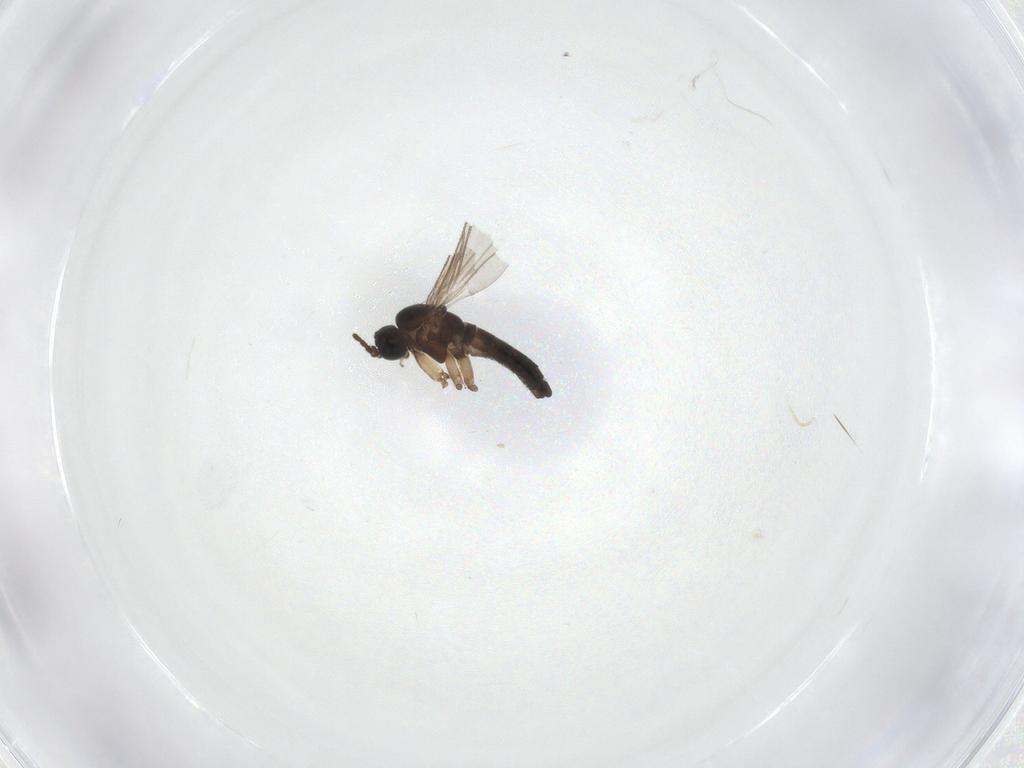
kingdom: Animalia
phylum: Arthropoda
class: Insecta
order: Diptera
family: Sciaridae
